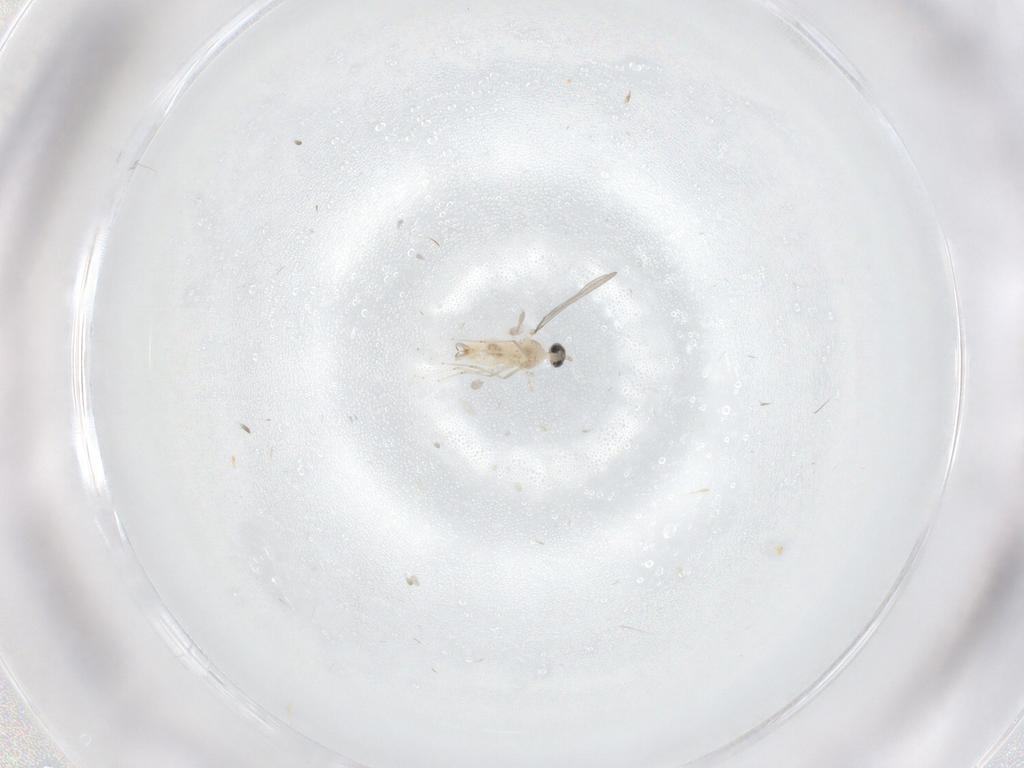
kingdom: Animalia
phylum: Arthropoda
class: Insecta
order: Diptera
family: Cecidomyiidae
